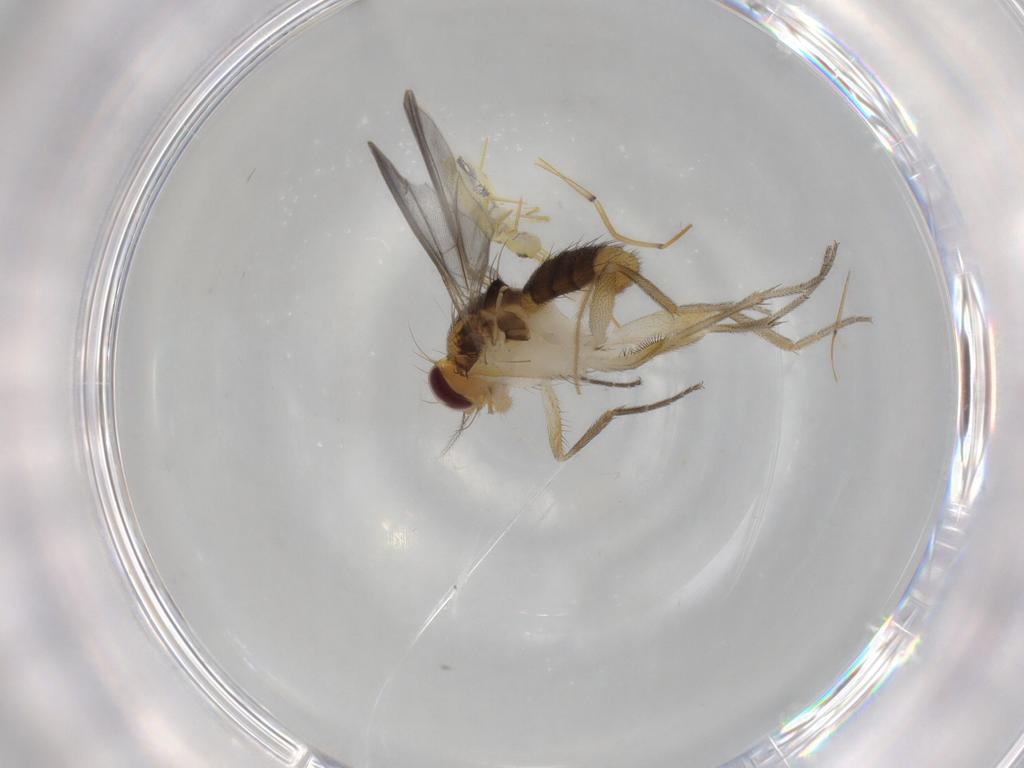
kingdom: Animalia
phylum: Arthropoda
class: Insecta
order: Diptera
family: Clusiidae
